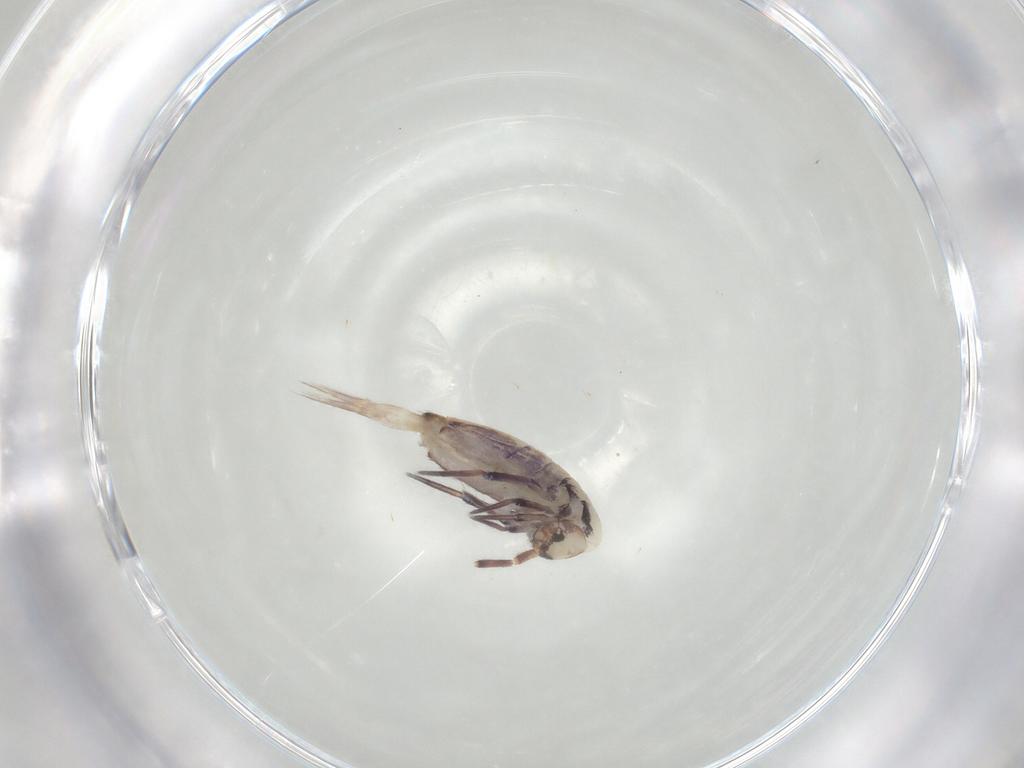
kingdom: Animalia
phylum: Arthropoda
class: Collembola
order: Entomobryomorpha
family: Entomobryidae
